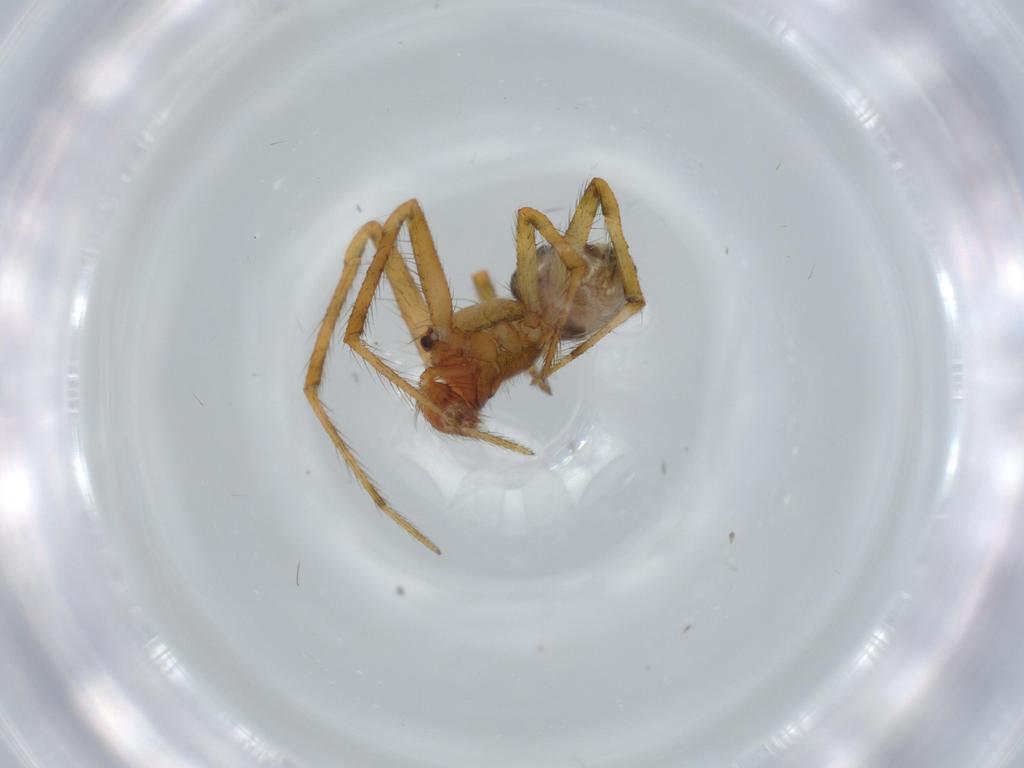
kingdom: Animalia
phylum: Arthropoda
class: Arachnida
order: Araneae
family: Theridiidae
